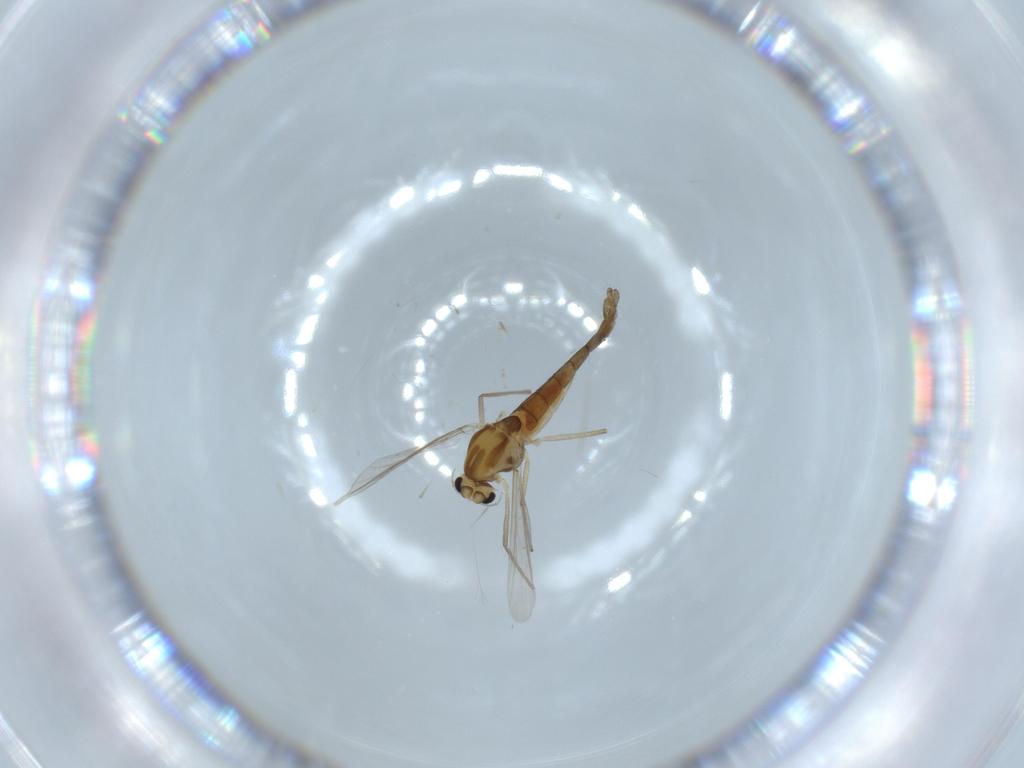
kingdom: Animalia
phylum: Arthropoda
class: Insecta
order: Diptera
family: Chironomidae
